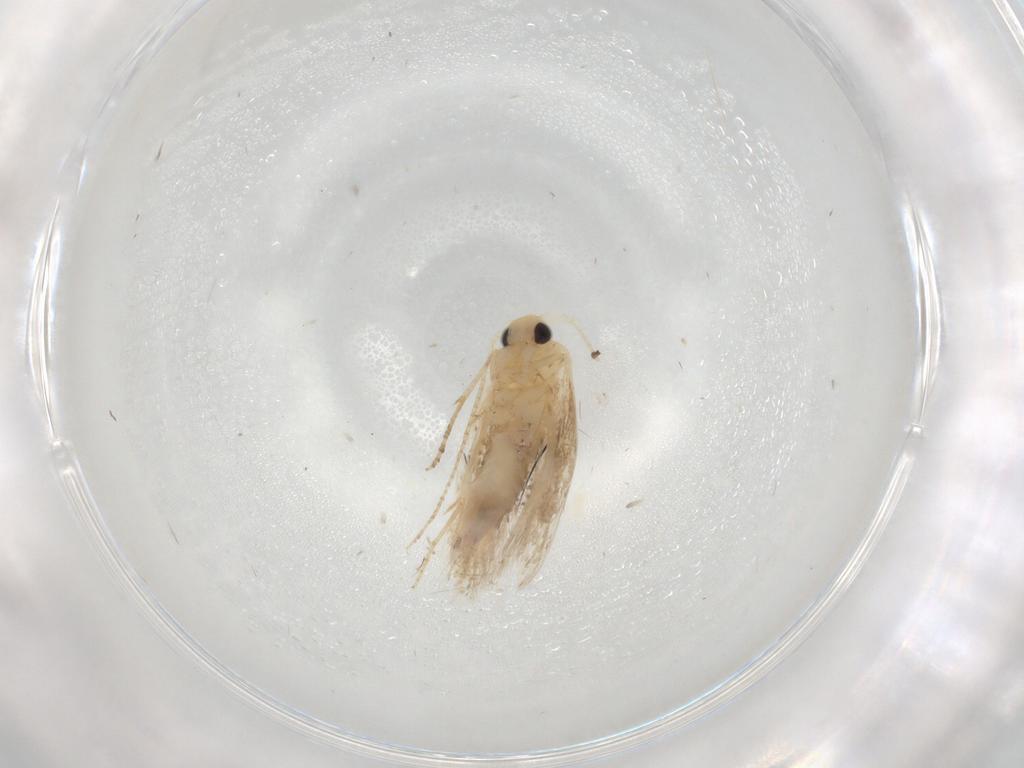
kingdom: Animalia
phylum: Arthropoda
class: Insecta
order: Lepidoptera
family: Bucculatricidae
